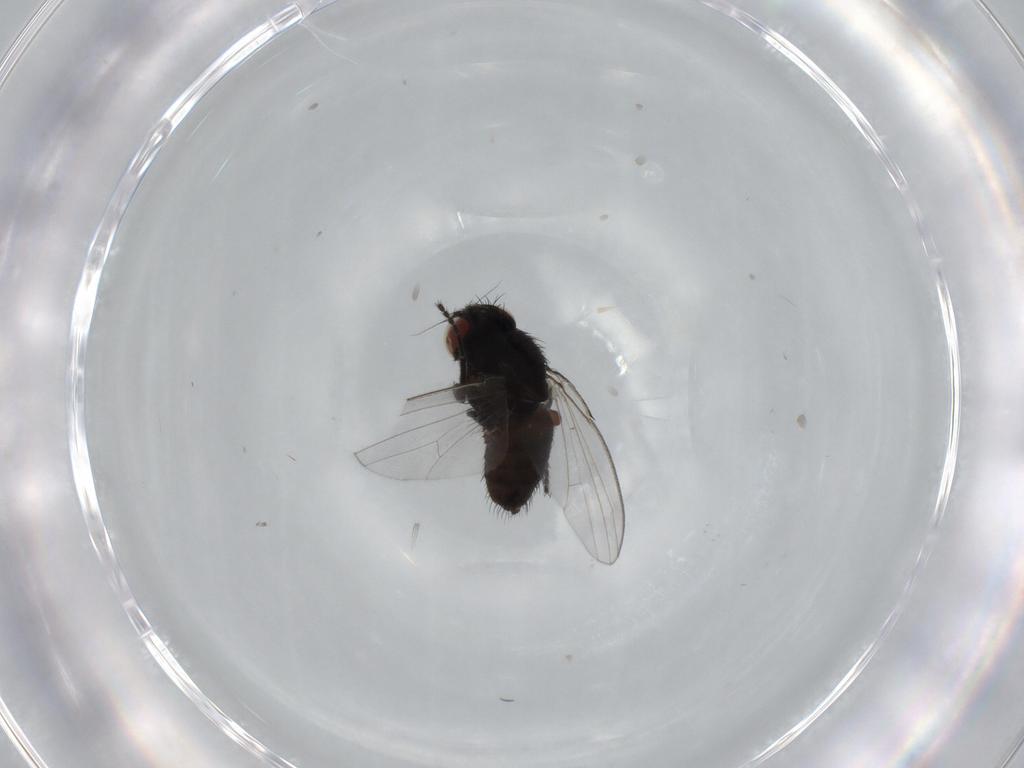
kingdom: Animalia
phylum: Arthropoda
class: Insecta
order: Diptera
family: Milichiidae
